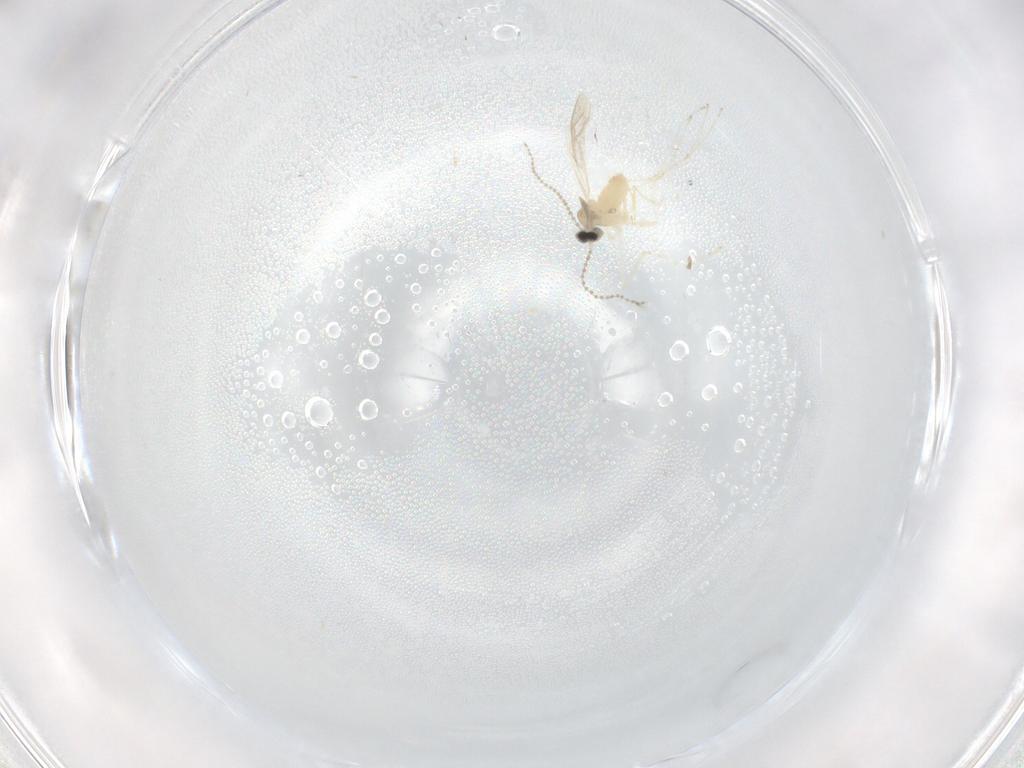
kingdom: Animalia
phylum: Arthropoda
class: Insecta
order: Diptera
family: Cecidomyiidae
